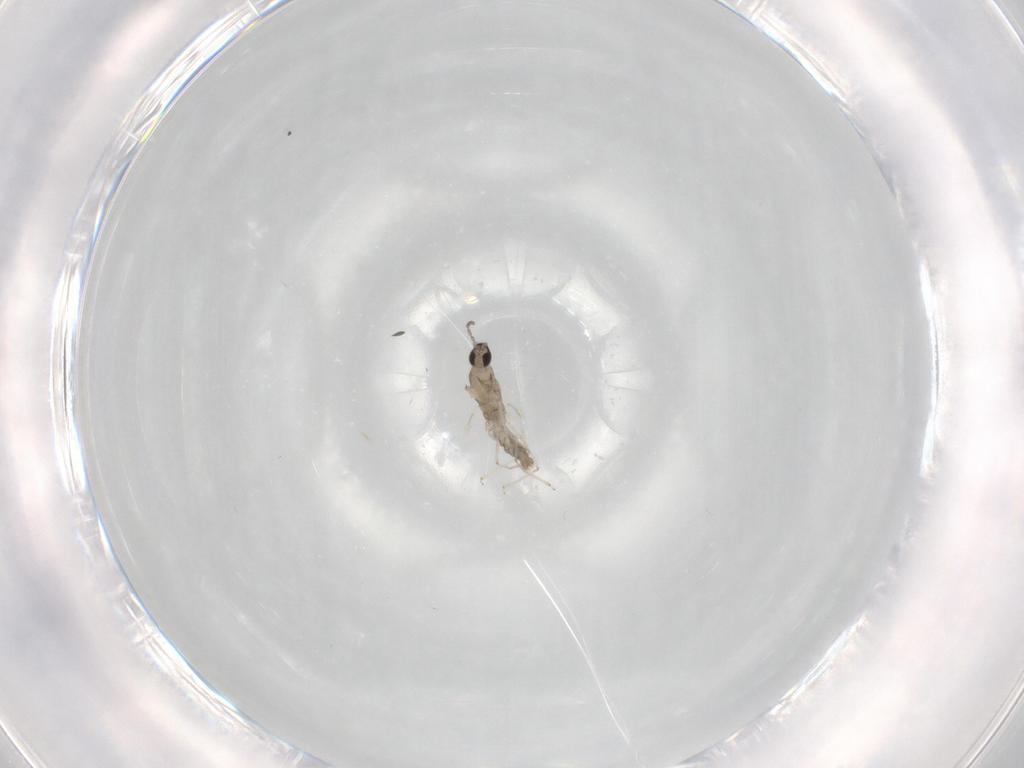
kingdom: Animalia
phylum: Arthropoda
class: Insecta
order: Diptera
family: Cecidomyiidae
